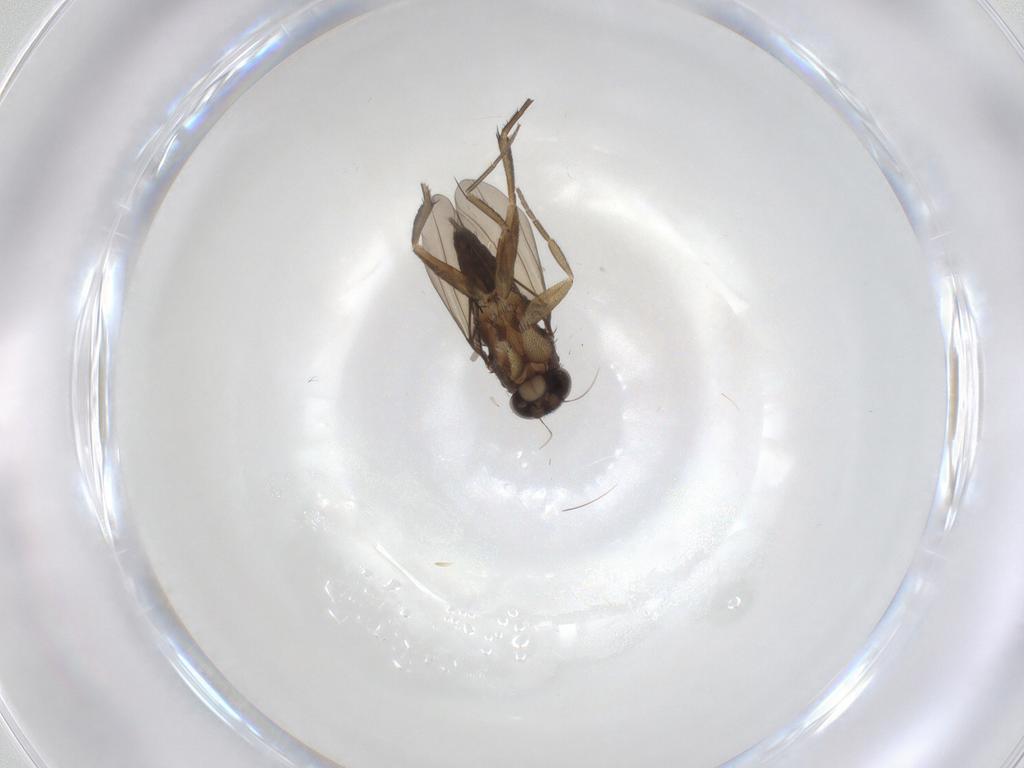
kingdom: Animalia
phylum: Arthropoda
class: Insecta
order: Diptera
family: Phoridae
